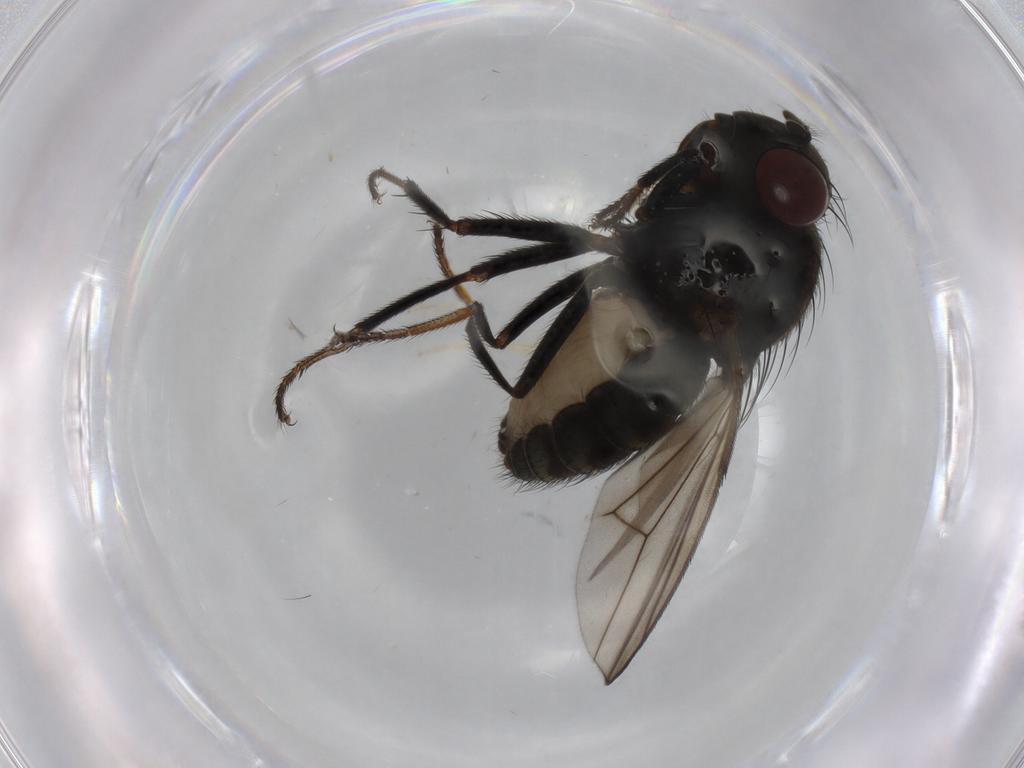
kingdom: Animalia
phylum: Arthropoda
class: Insecta
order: Diptera
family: Ephydridae
